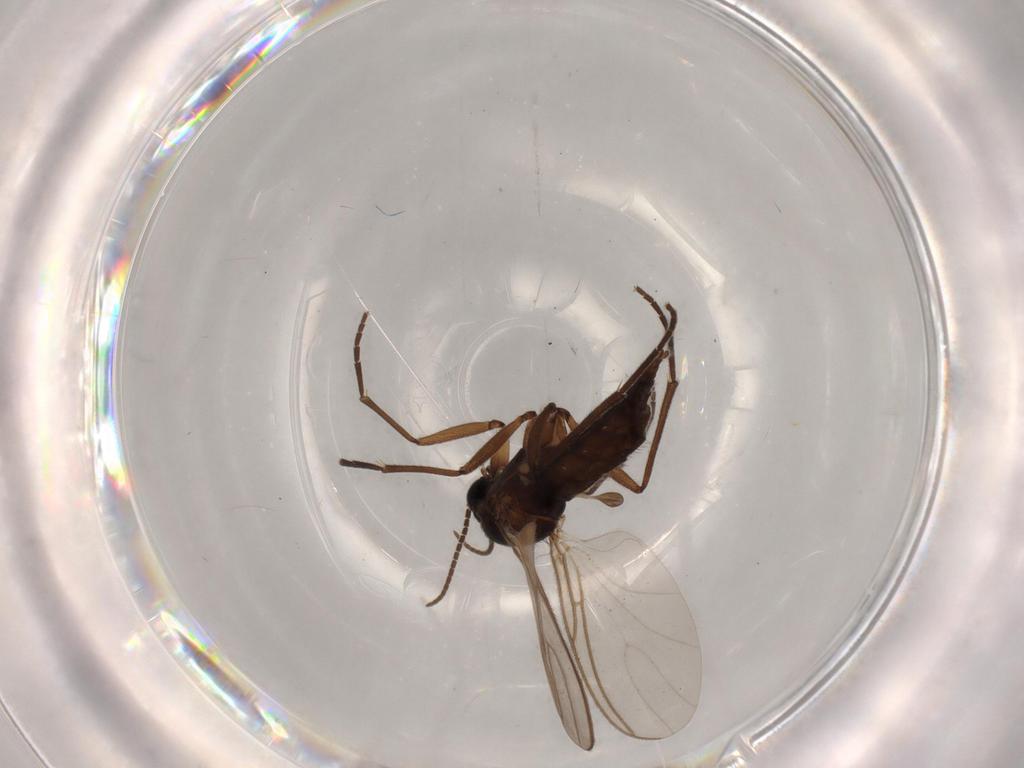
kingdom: Animalia
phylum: Arthropoda
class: Insecta
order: Diptera
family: Sciaridae
